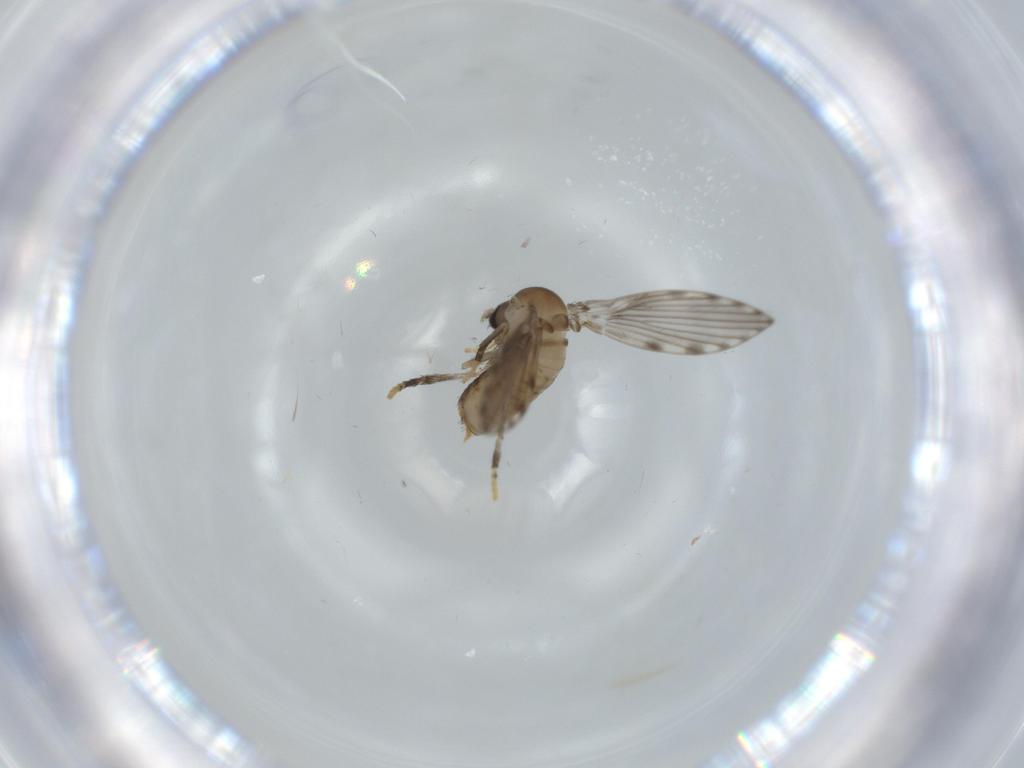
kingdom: Animalia
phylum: Arthropoda
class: Insecta
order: Diptera
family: Psychodidae
